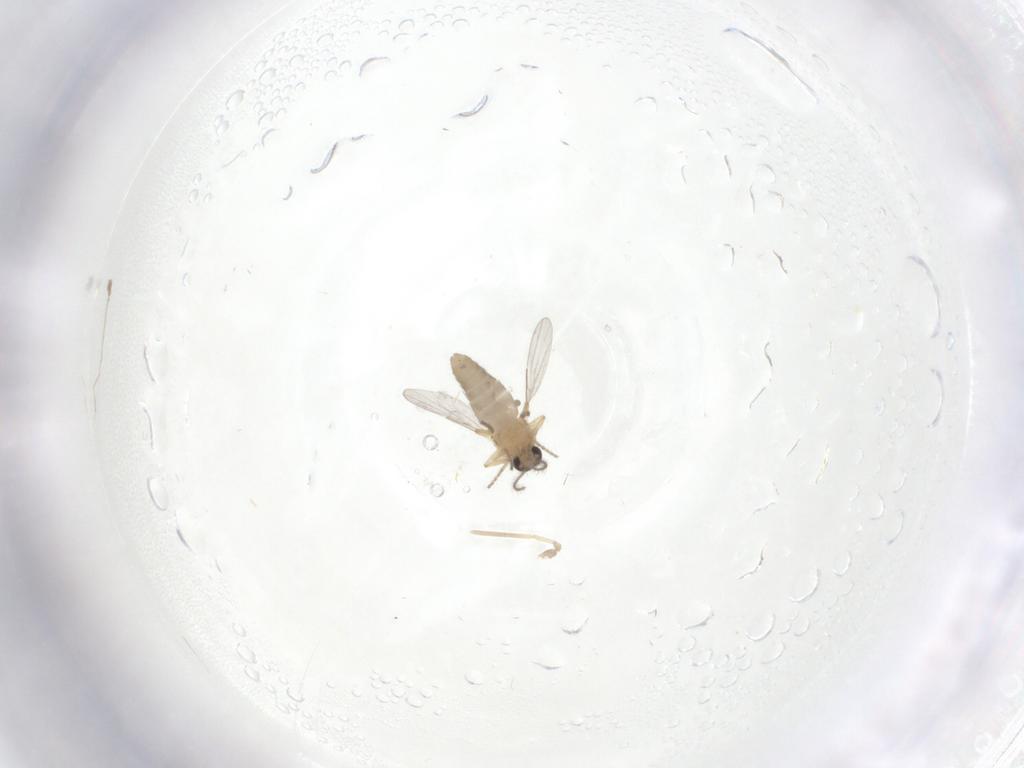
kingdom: Animalia
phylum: Arthropoda
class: Insecta
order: Diptera
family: Ceratopogonidae
